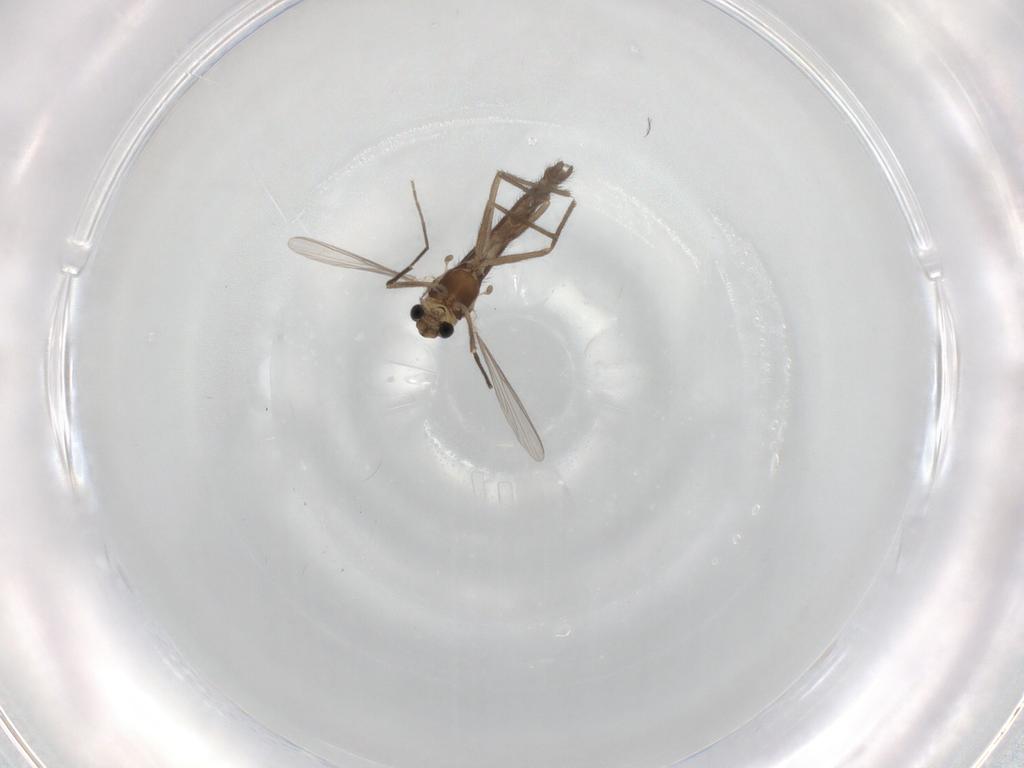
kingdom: Animalia
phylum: Arthropoda
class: Insecta
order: Diptera
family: Chironomidae
